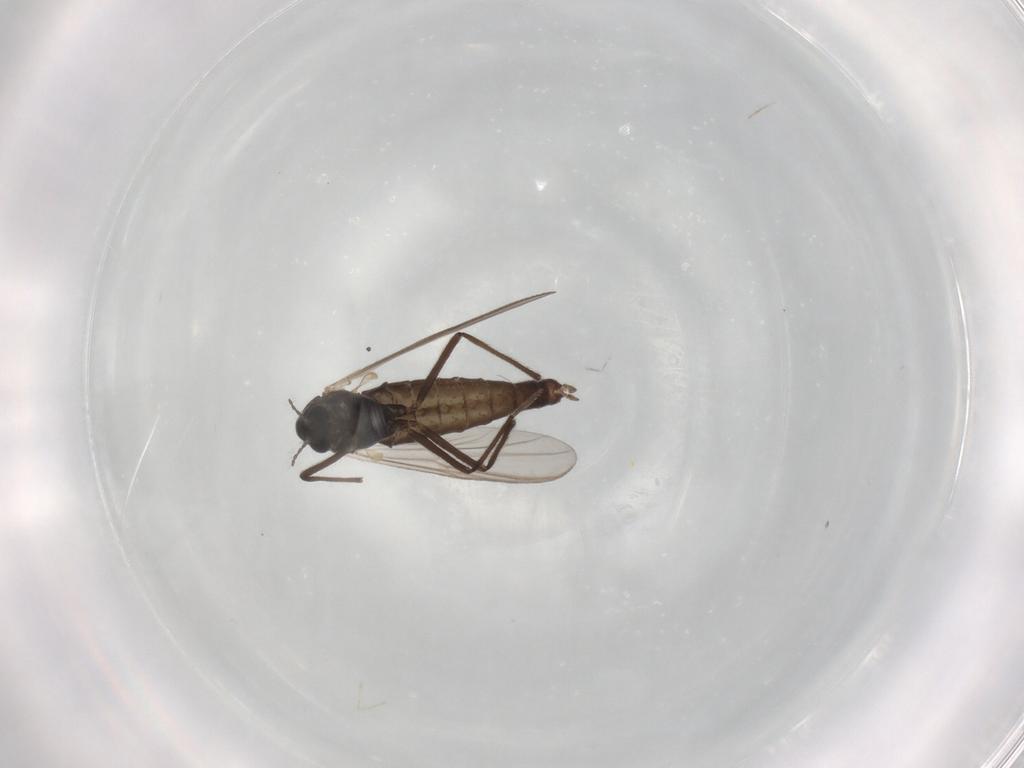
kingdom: Animalia
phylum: Arthropoda
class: Insecta
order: Diptera
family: Chironomidae
